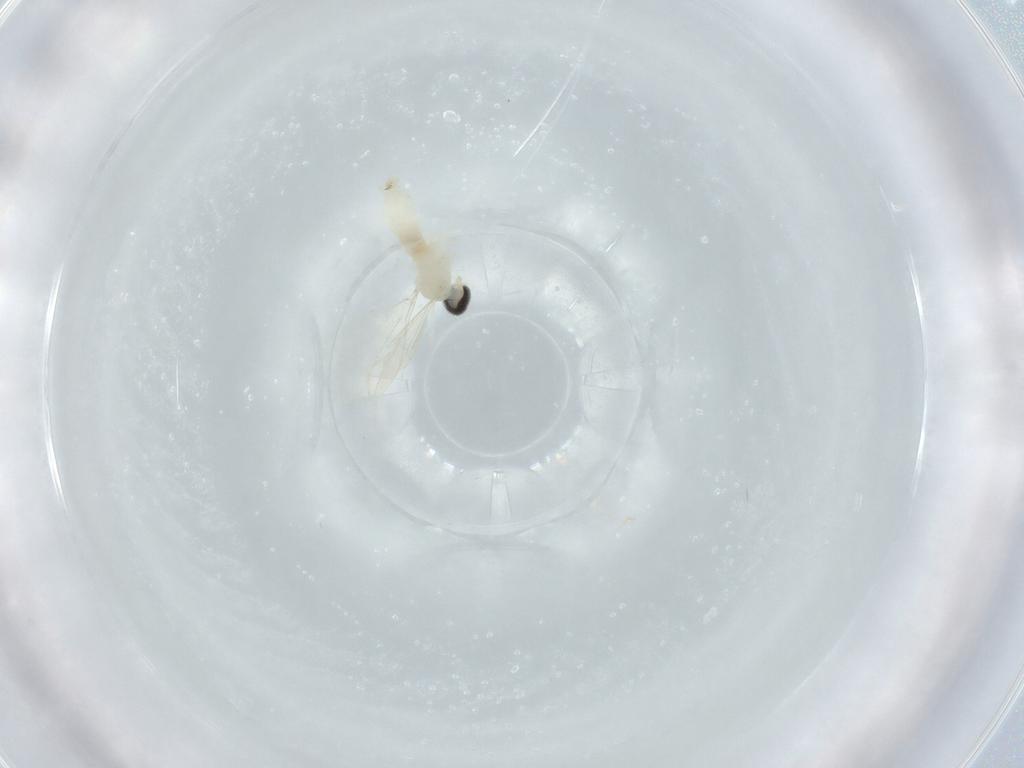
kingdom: Animalia
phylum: Arthropoda
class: Insecta
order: Diptera
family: Cecidomyiidae
